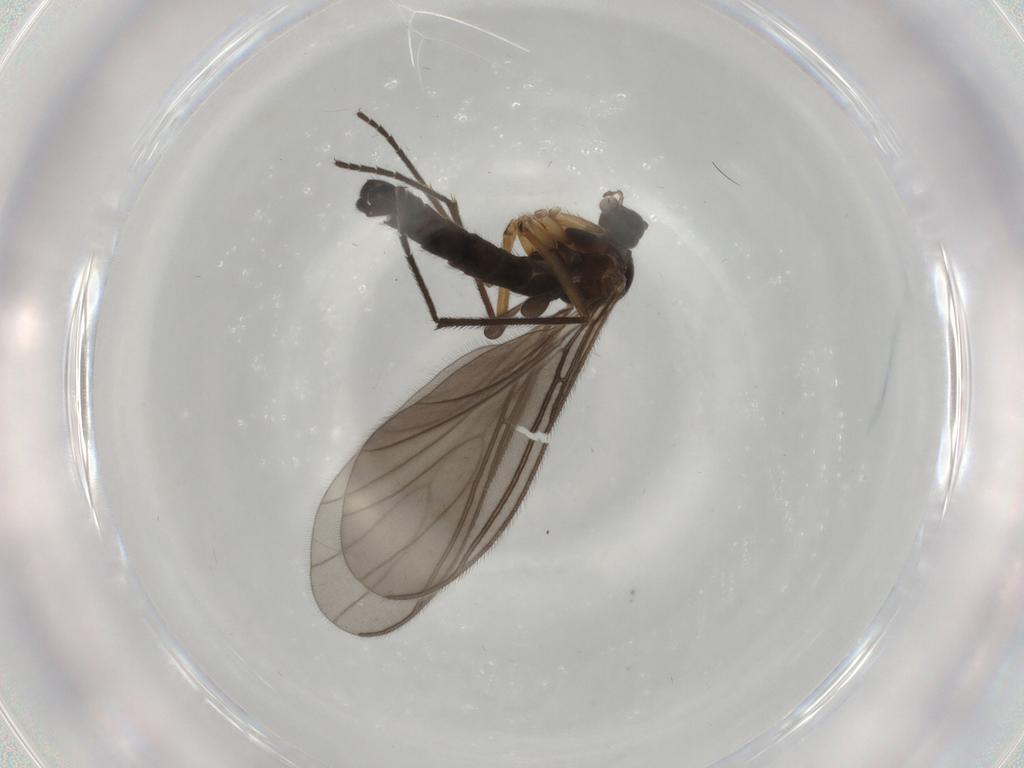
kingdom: Animalia
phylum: Arthropoda
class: Insecta
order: Diptera
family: Sciaridae
